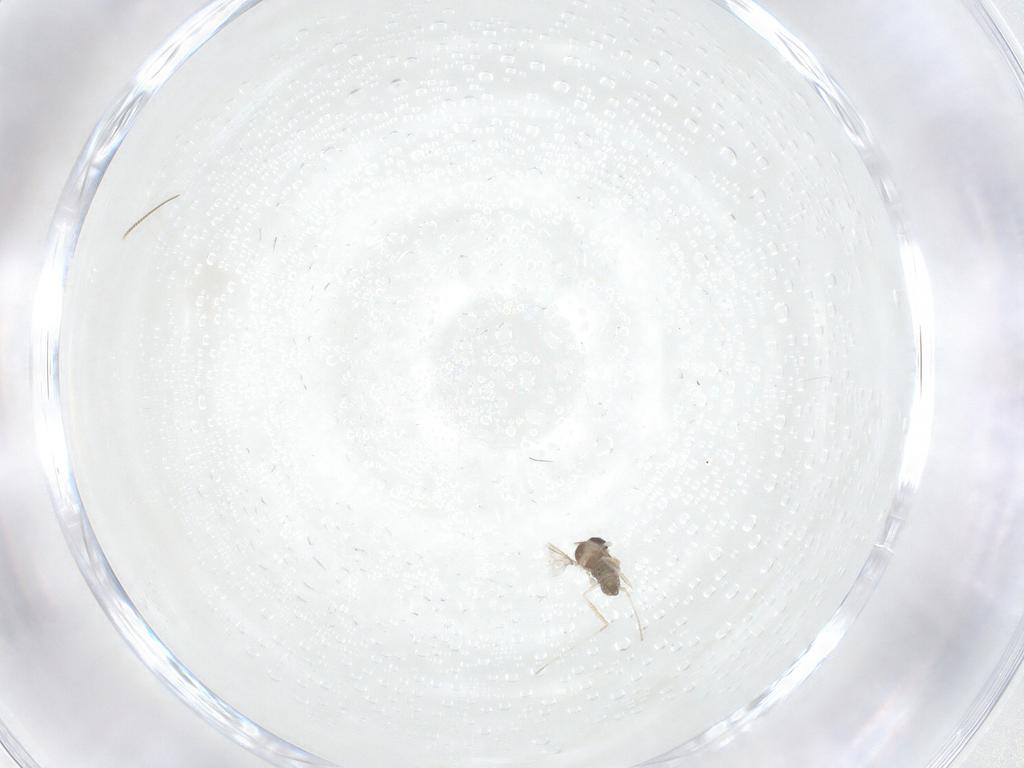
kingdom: Animalia
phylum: Arthropoda
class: Insecta
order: Diptera
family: Cecidomyiidae
